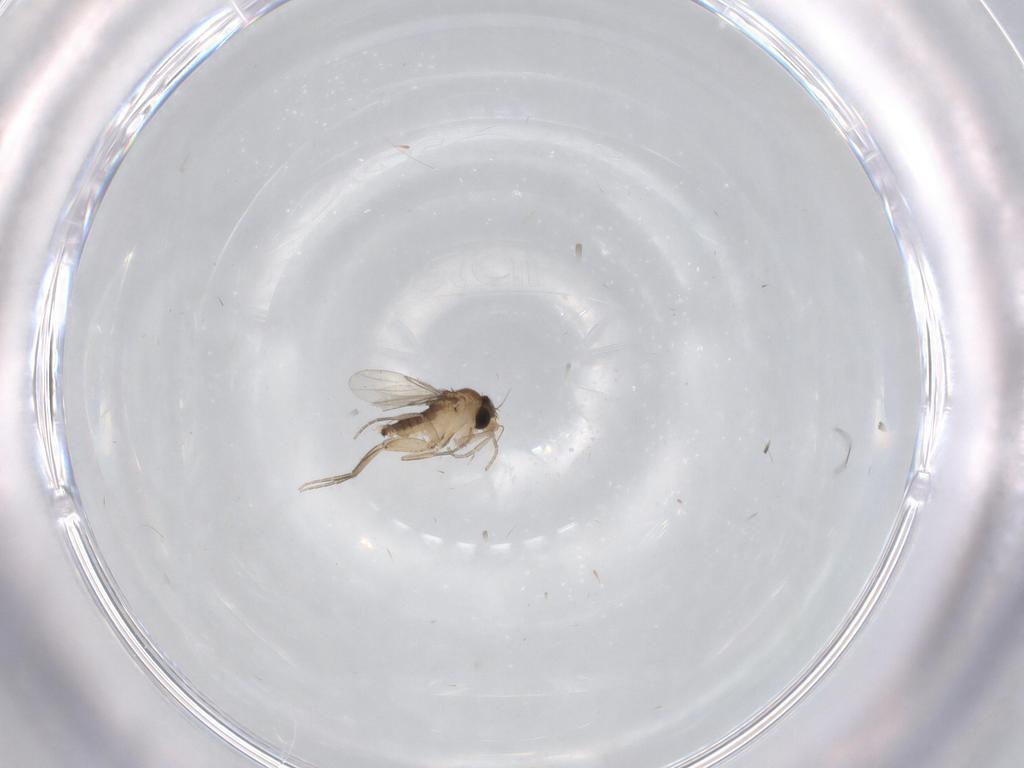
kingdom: Animalia
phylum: Arthropoda
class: Insecta
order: Diptera
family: Phoridae
